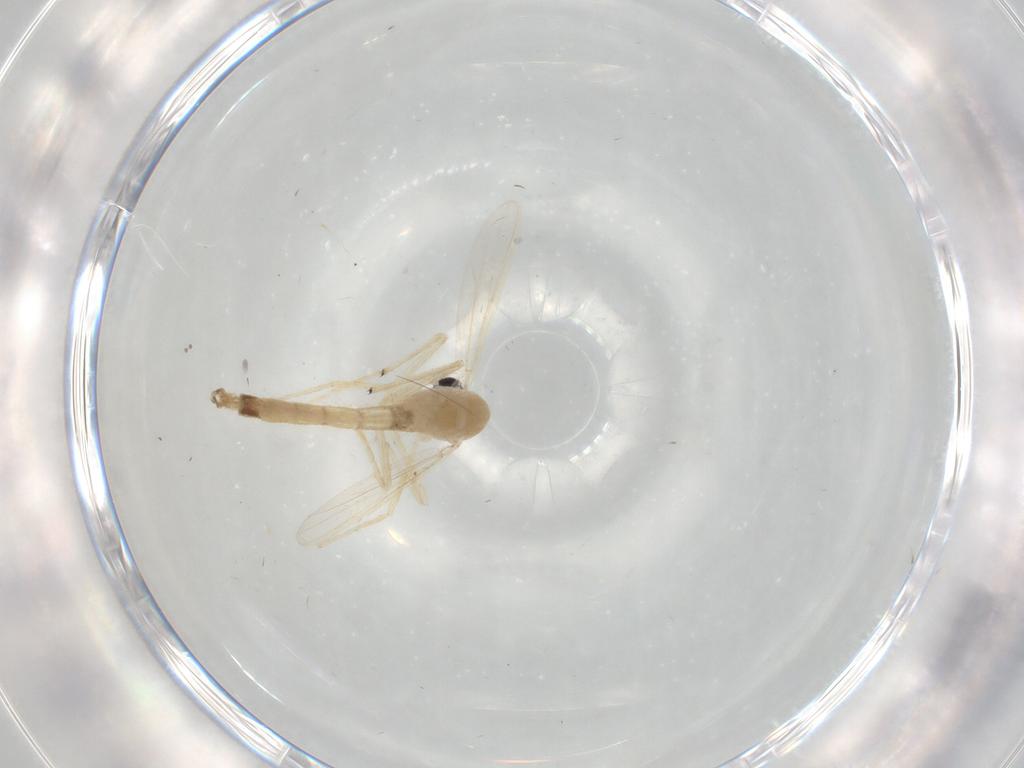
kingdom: Animalia
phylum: Arthropoda
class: Insecta
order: Diptera
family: Chironomidae
